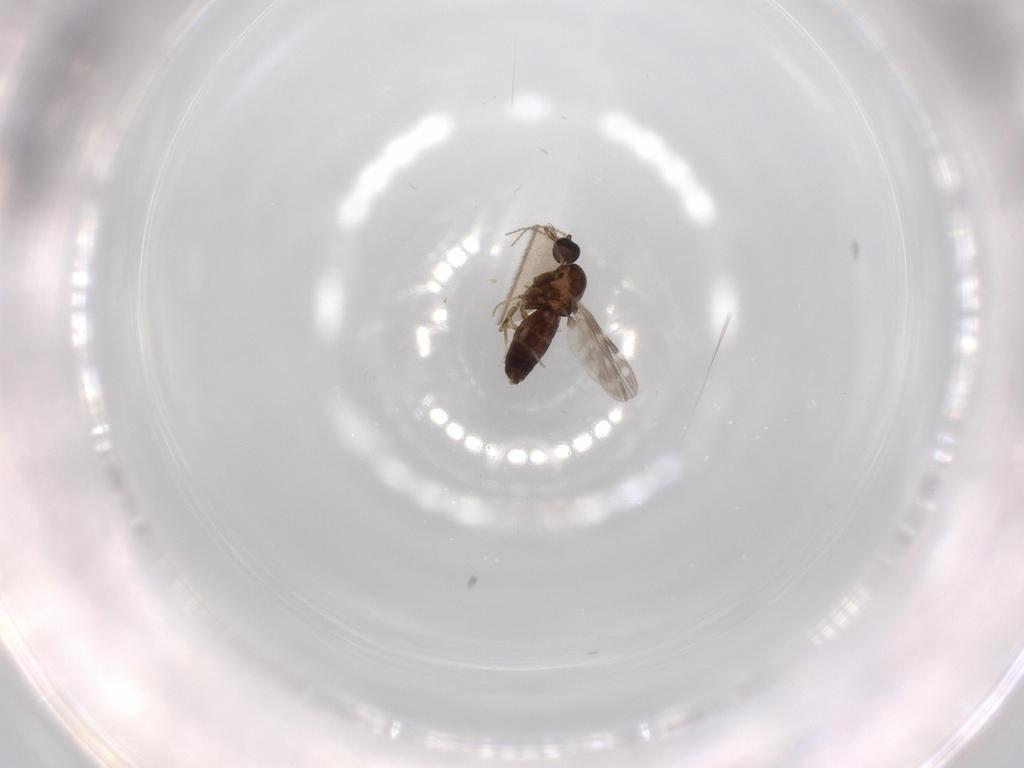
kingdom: Animalia
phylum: Arthropoda
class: Insecta
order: Diptera
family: Ceratopogonidae
